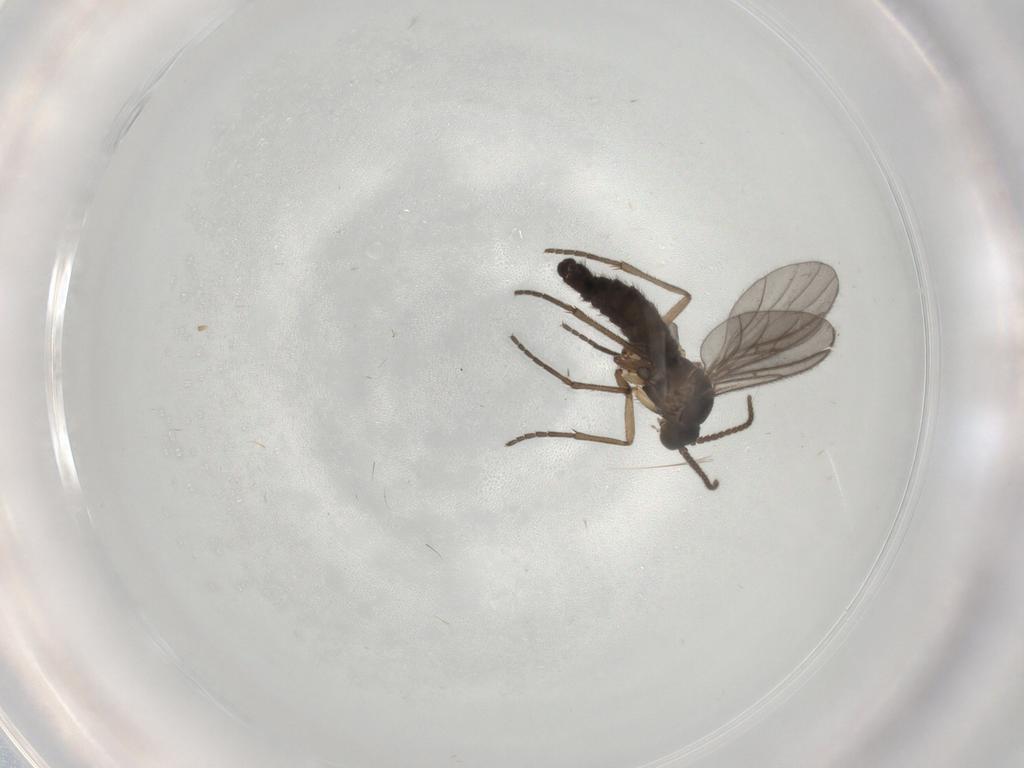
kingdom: Animalia
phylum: Arthropoda
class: Insecta
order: Diptera
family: Sciaridae
